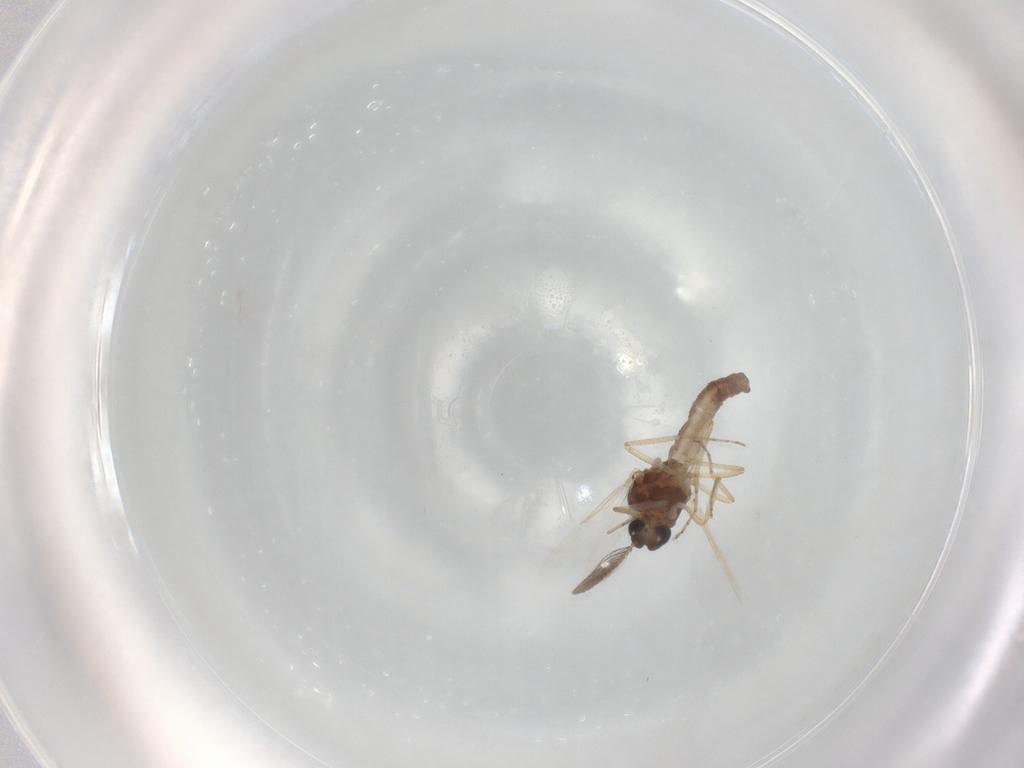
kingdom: Animalia
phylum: Arthropoda
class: Insecta
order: Diptera
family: Ceratopogonidae
